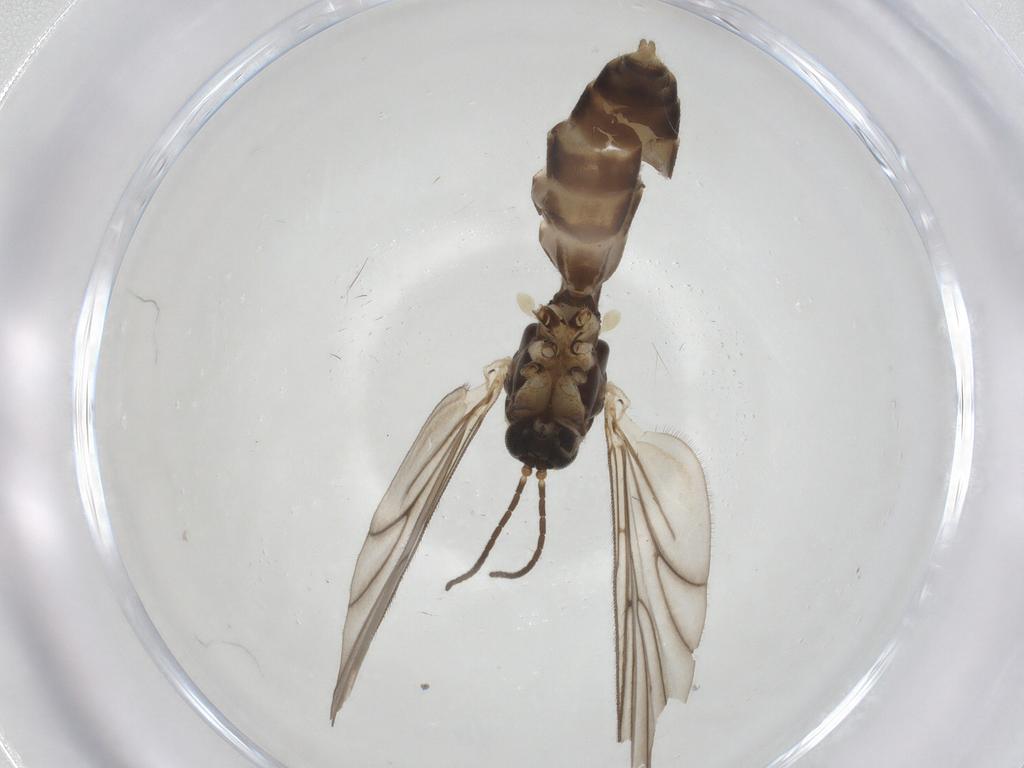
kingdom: Animalia
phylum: Arthropoda
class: Insecta
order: Diptera
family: Mycetophilidae
